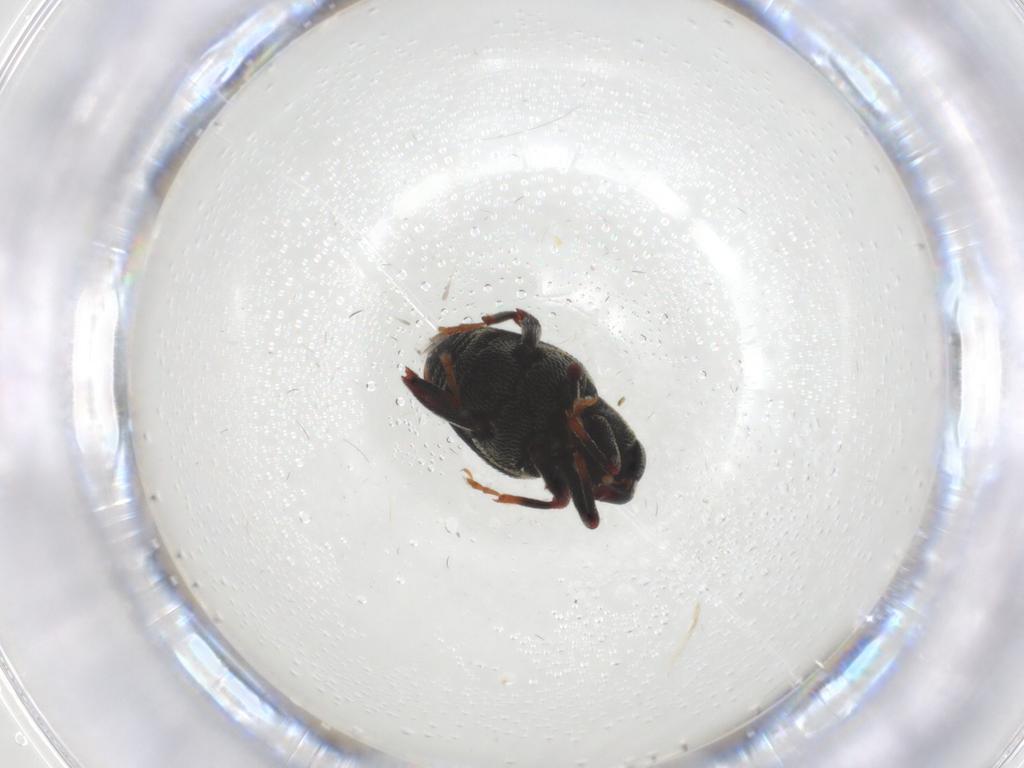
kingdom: Animalia
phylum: Arthropoda
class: Insecta
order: Coleoptera
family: Curculionidae
